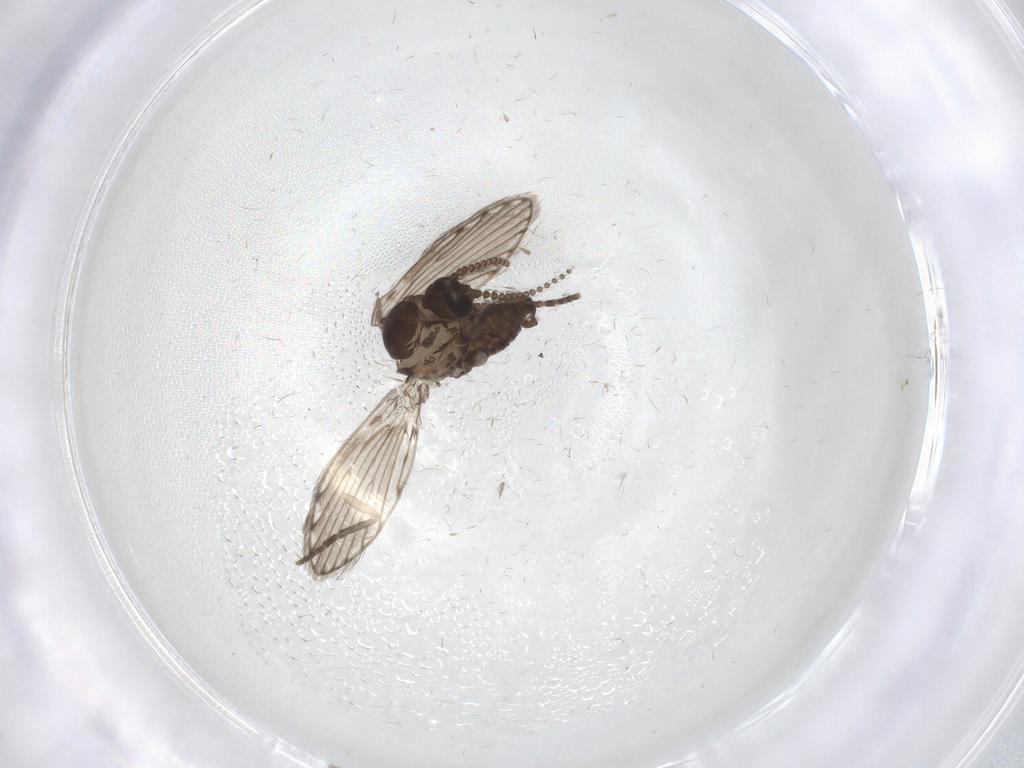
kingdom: Animalia
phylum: Arthropoda
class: Insecta
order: Diptera
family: Psychodidae
